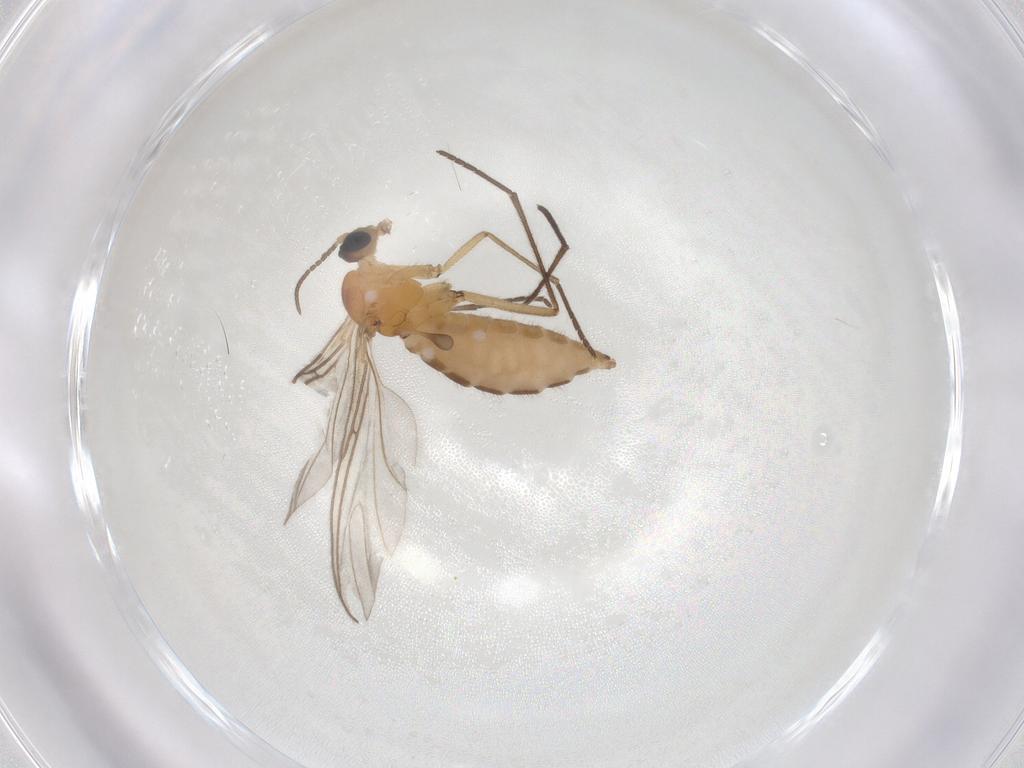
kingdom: Animalia
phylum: Arthropoda
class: Insecta
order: Diptera
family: Sciaridae
